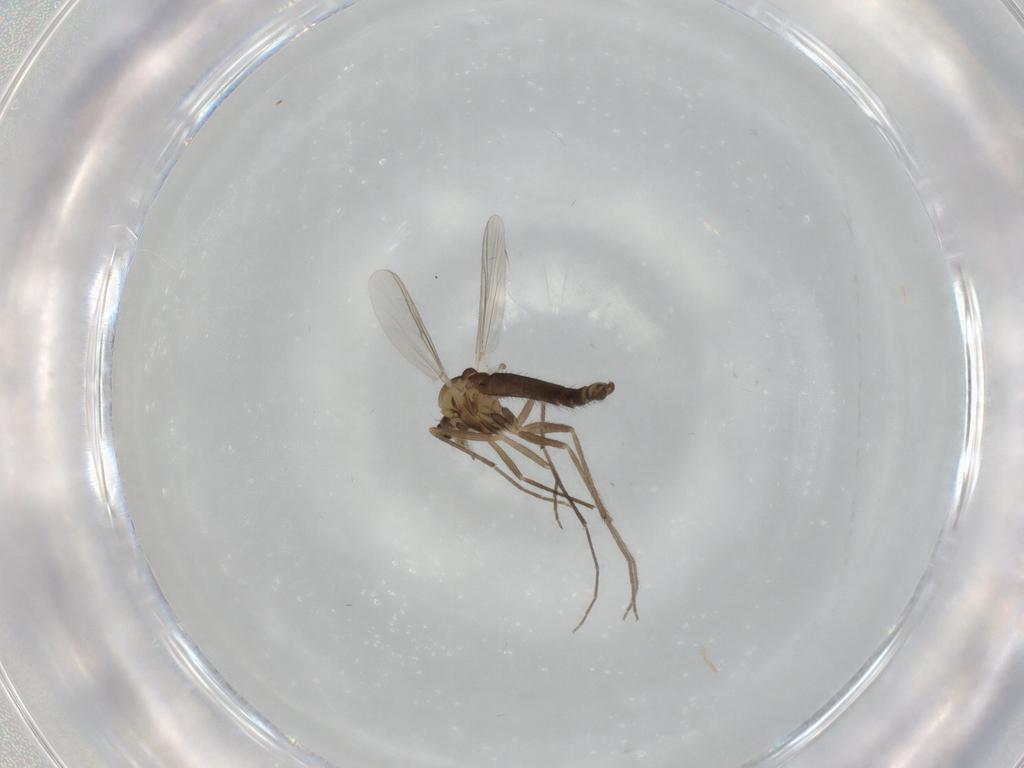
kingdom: Animalia
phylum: Arthropoda
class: Insecta
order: Diptera
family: Chironomidae
